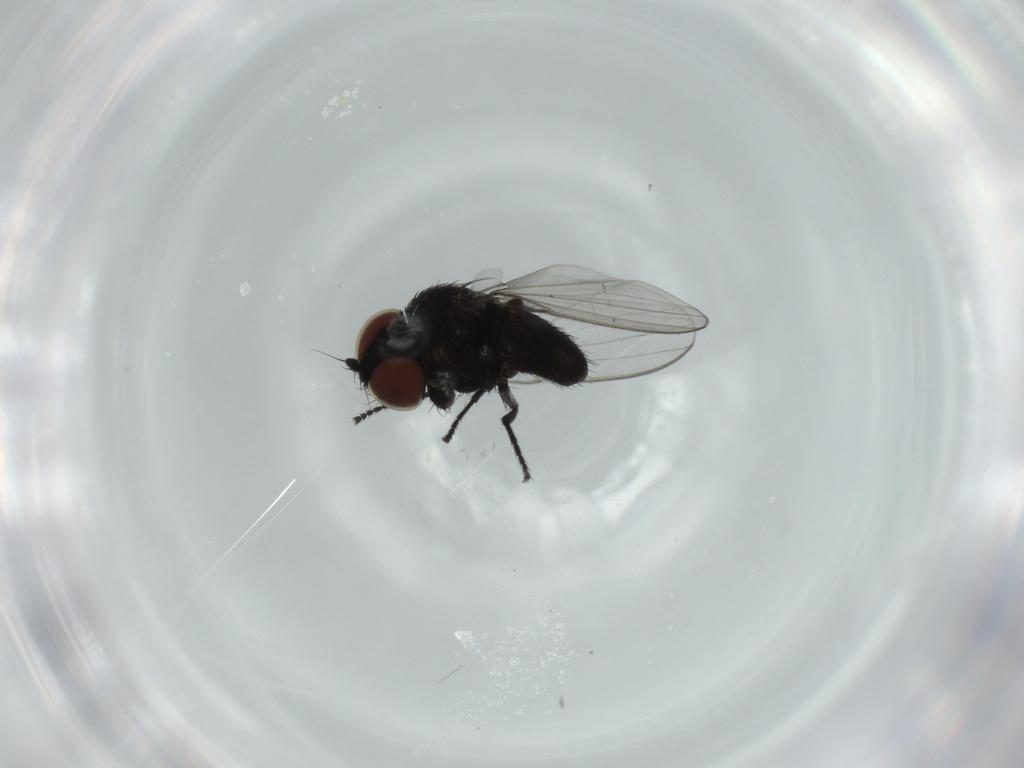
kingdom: Animalia
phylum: Arthropoda
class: Insecta
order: Diptera
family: Milichiidae
